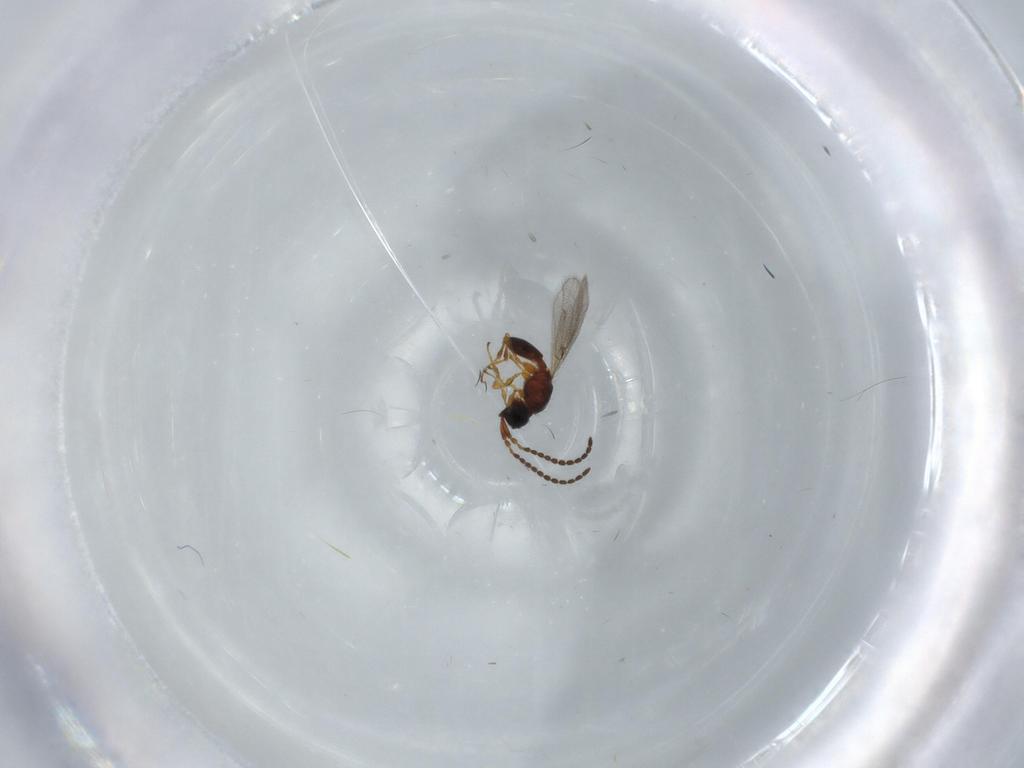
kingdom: Animalia
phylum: Arthropoda
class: Insecta
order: Hymenoptera
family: Diapriidae
